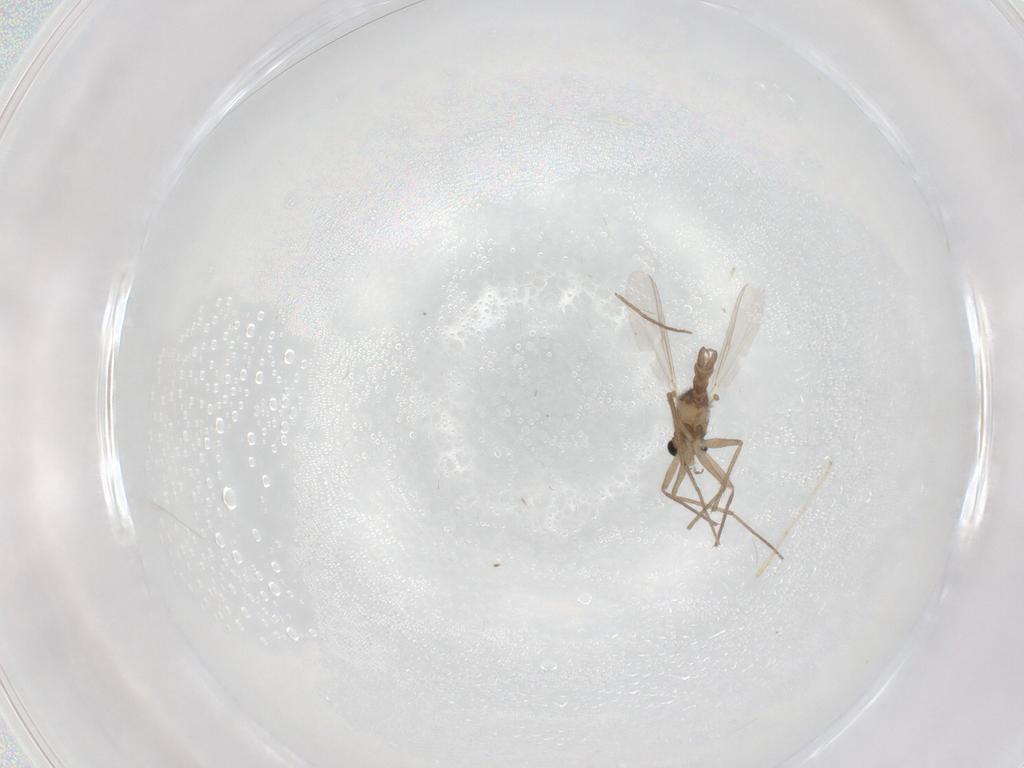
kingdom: Animalia
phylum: Arthropoda
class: Insecta
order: Diptera
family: Chironomidae
